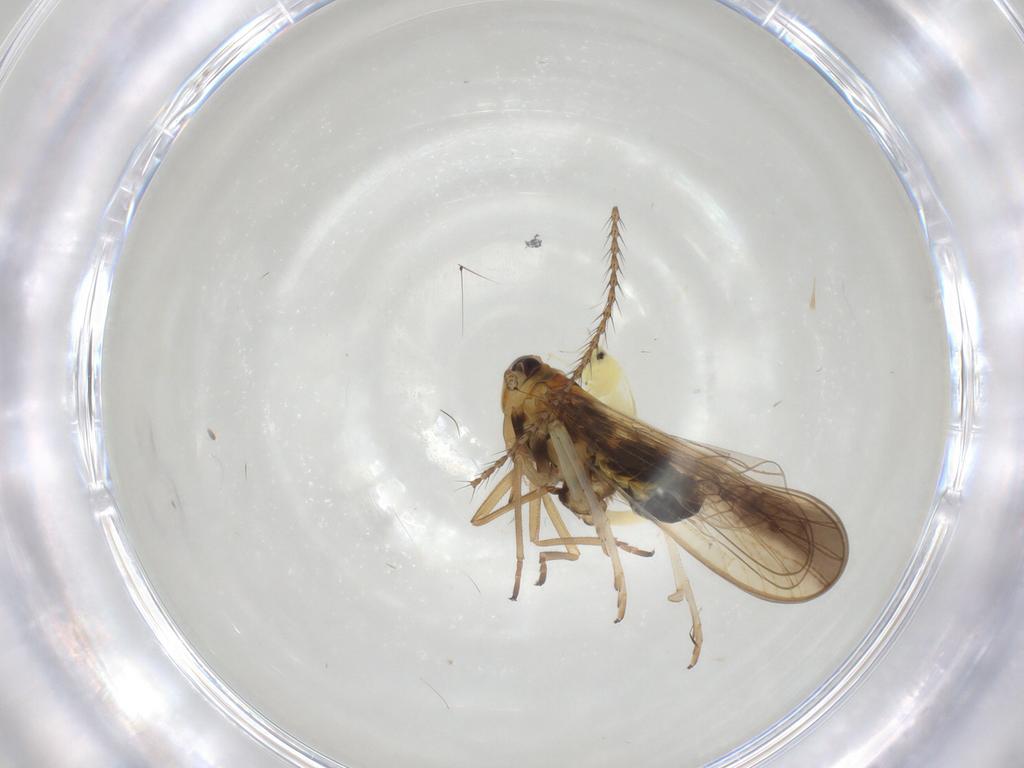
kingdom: Animalia
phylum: Arthropoda
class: Insecta
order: Hemiptera
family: Delphacidae
